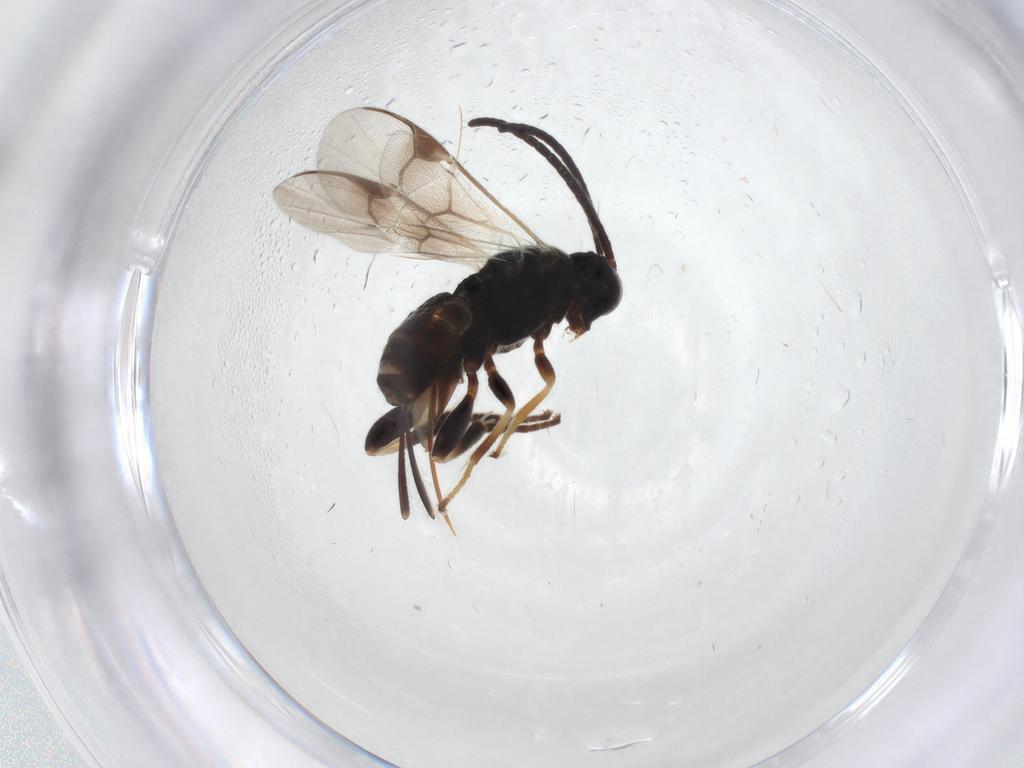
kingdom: Animalia
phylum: Arthropoda
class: Insecta
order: Hymenoptera
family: Braconidae
